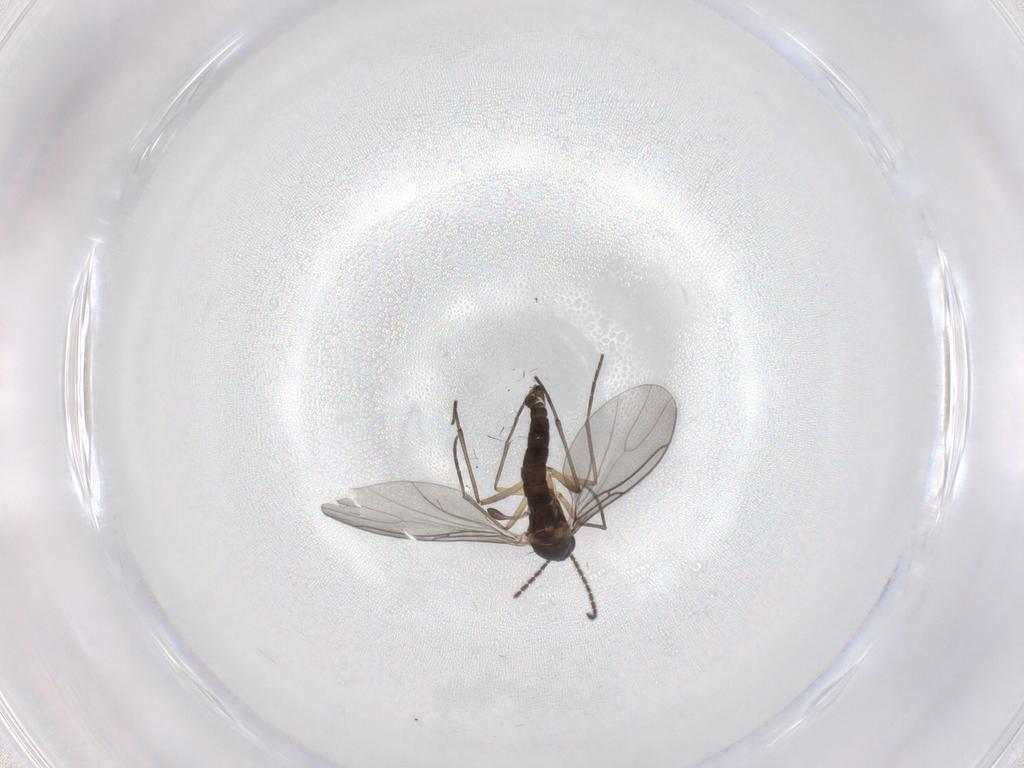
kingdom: Animalia
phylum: Arthropoda
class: Insecta
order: Diptera
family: Sciaridae
